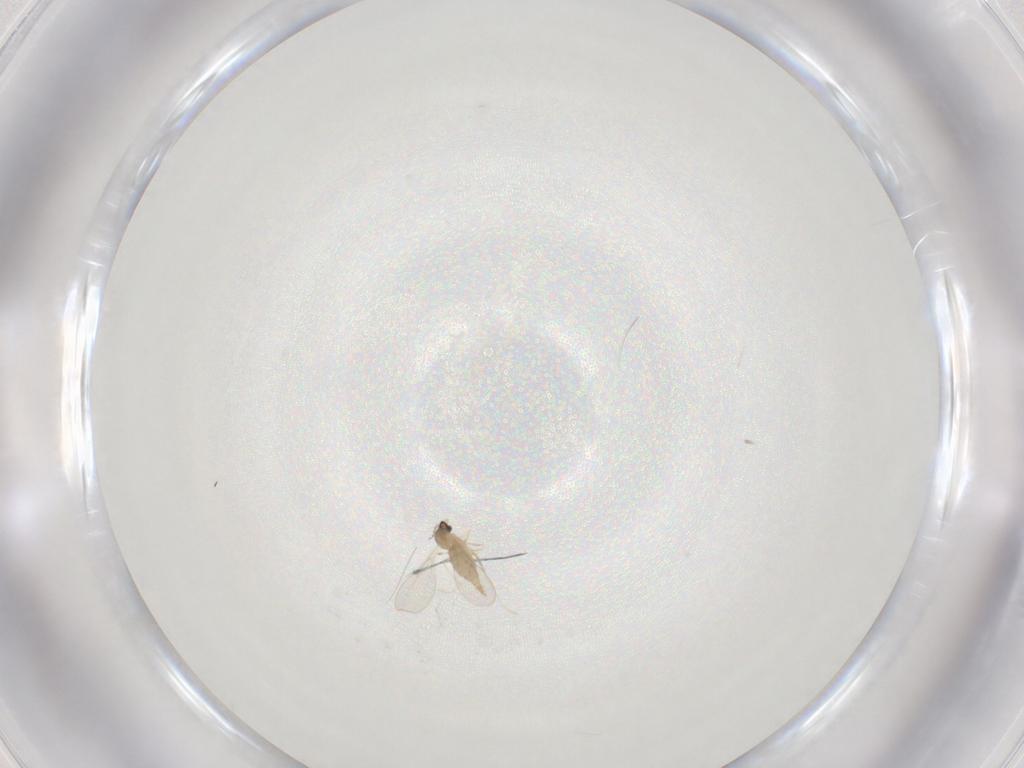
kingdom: Animalia
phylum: Arthropoda
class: Insecta
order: Diptera
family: Cecidomyiidae
